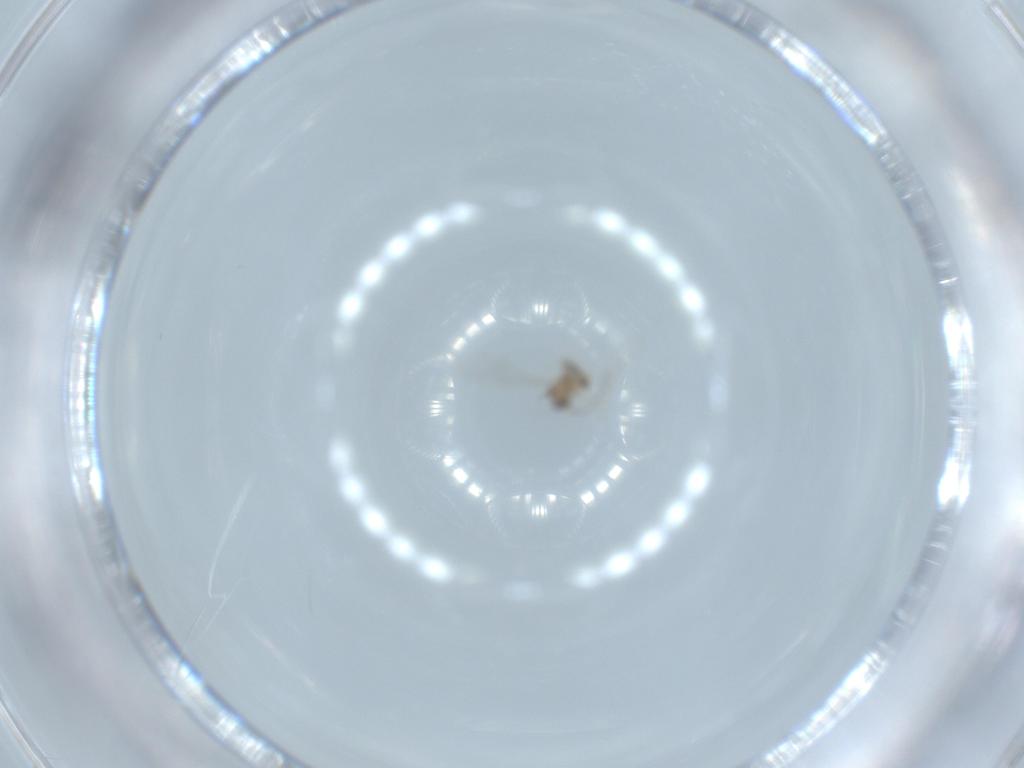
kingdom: Animalia
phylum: Arthropoda
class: Insecta
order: Diptera
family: Cecidomyiidae
